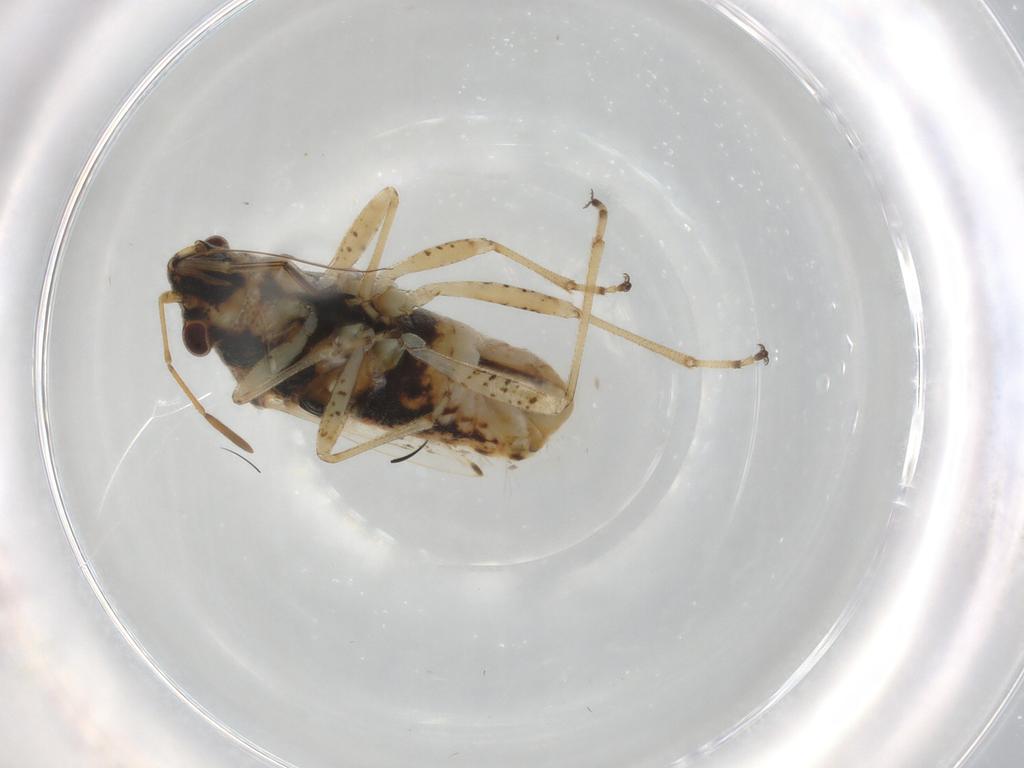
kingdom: Animalia
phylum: Arthropoda
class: Insecta
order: Hemiptera
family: Lygaeidae
